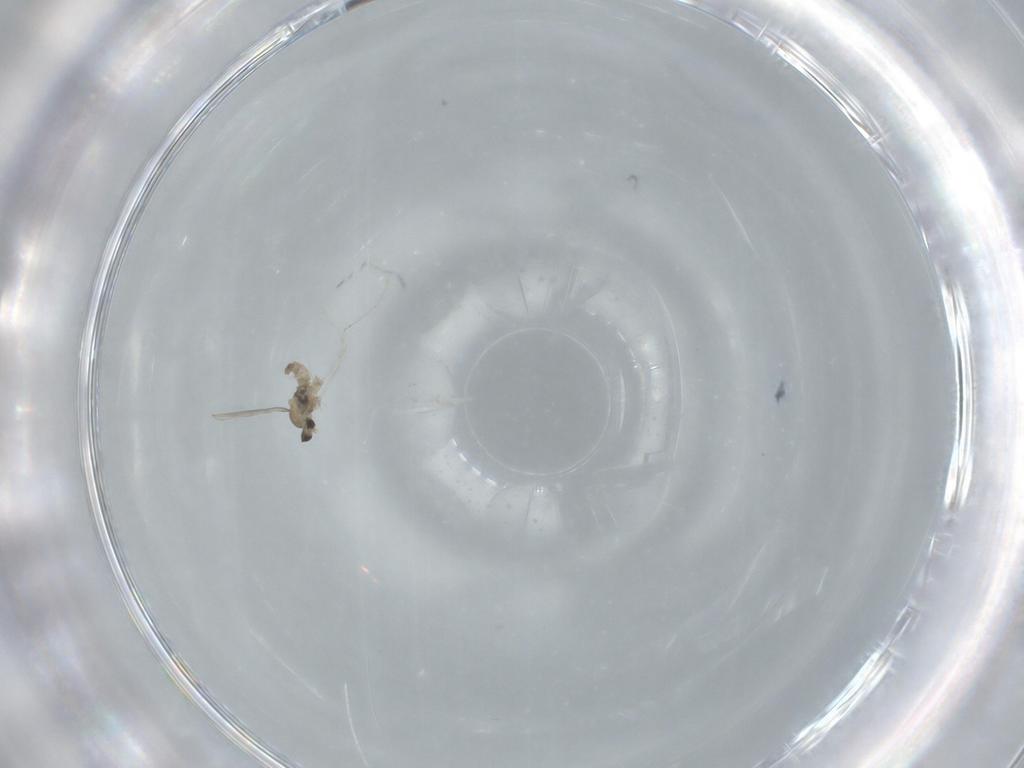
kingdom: Animalia
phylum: Arthropoda
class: Insecta
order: Diptera
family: Cecidomyiidae
